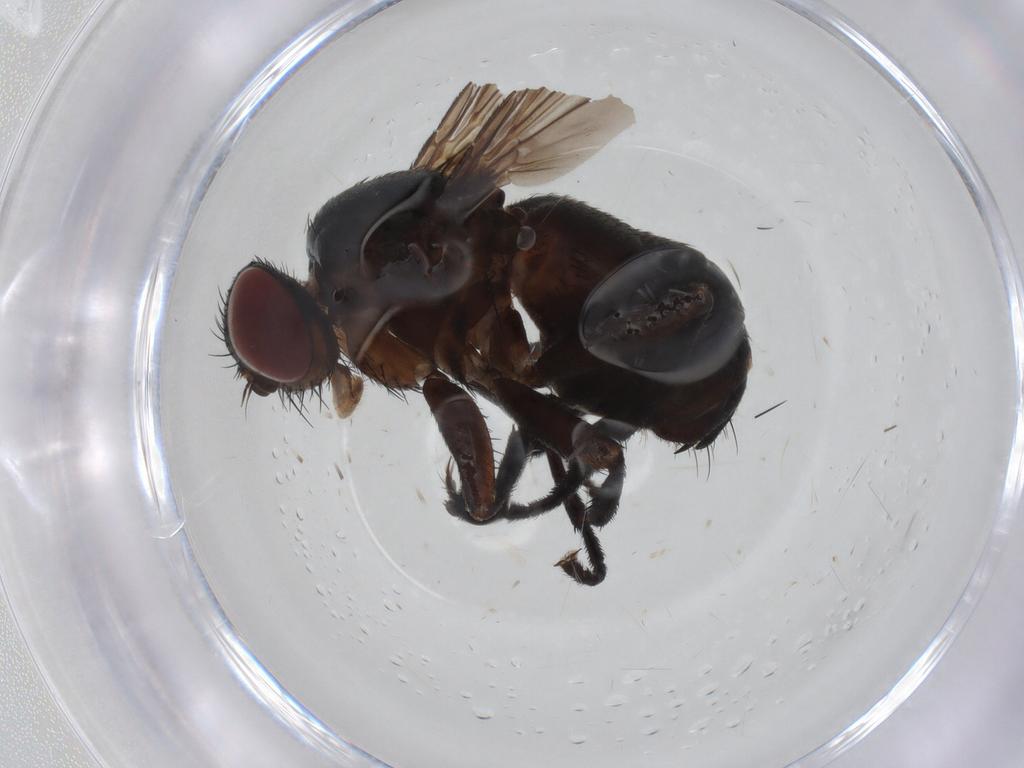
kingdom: Animalia
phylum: Arthropoda
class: Insecta
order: Diptera
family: Tachinidae
